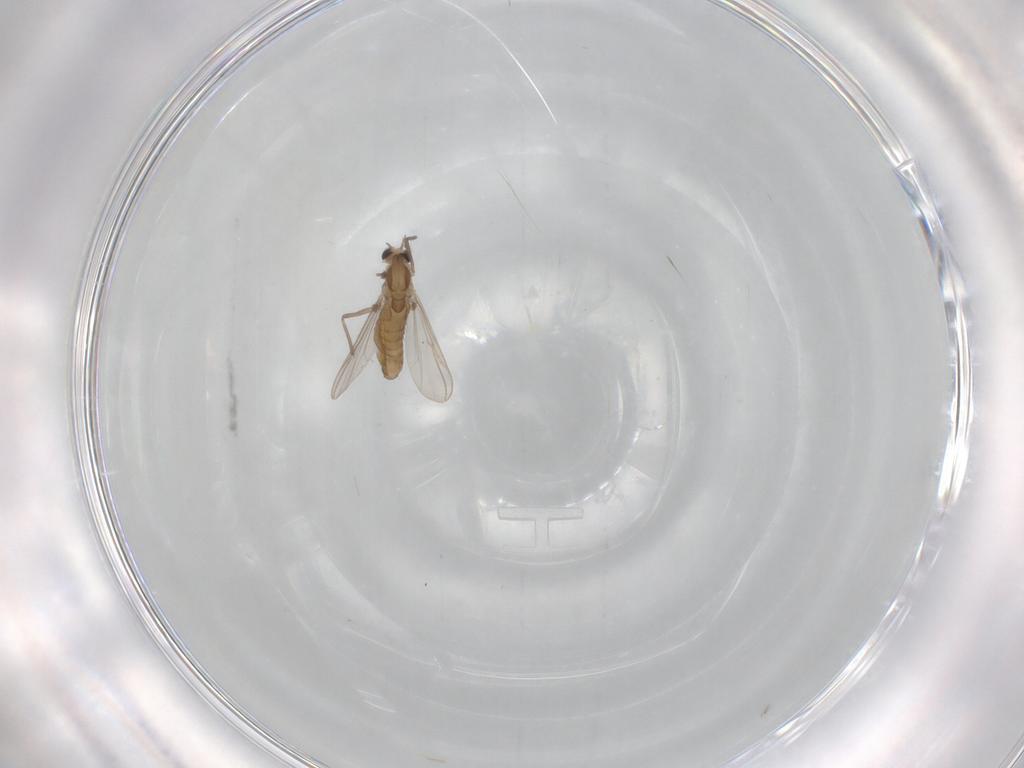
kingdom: Animalia
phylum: Arthropoda
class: Insecta
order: Diptera
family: Chironomidae
